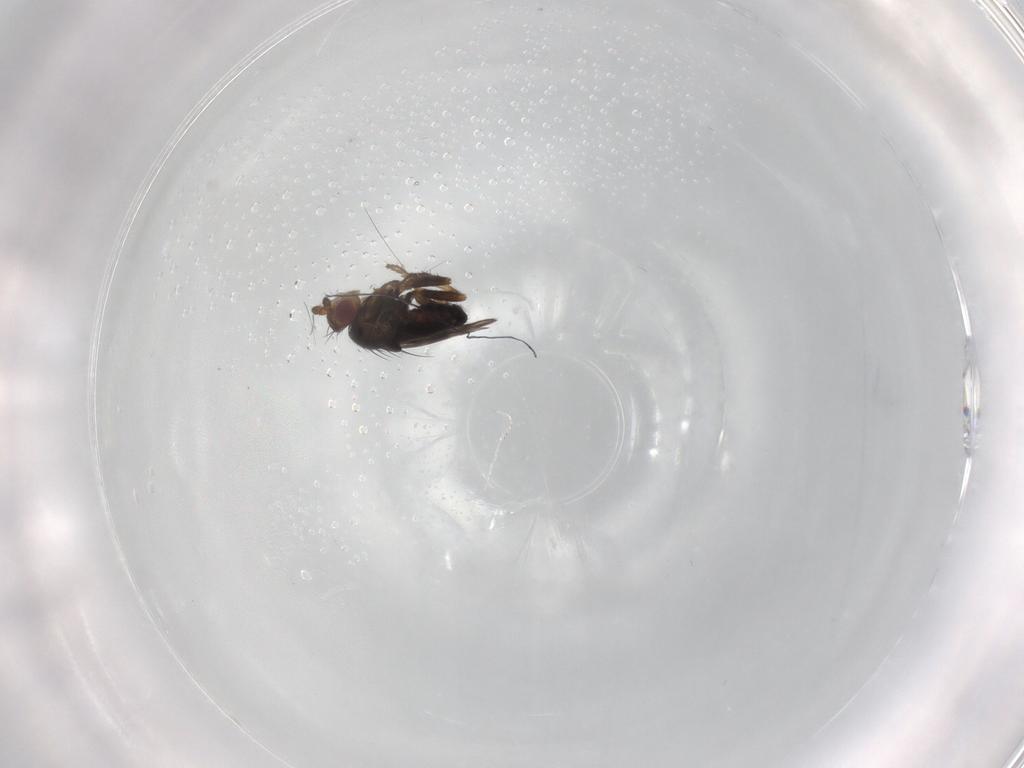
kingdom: Animalia
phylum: Arthropoda
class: Insecta
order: Diptera
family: Sphaeroceridae
